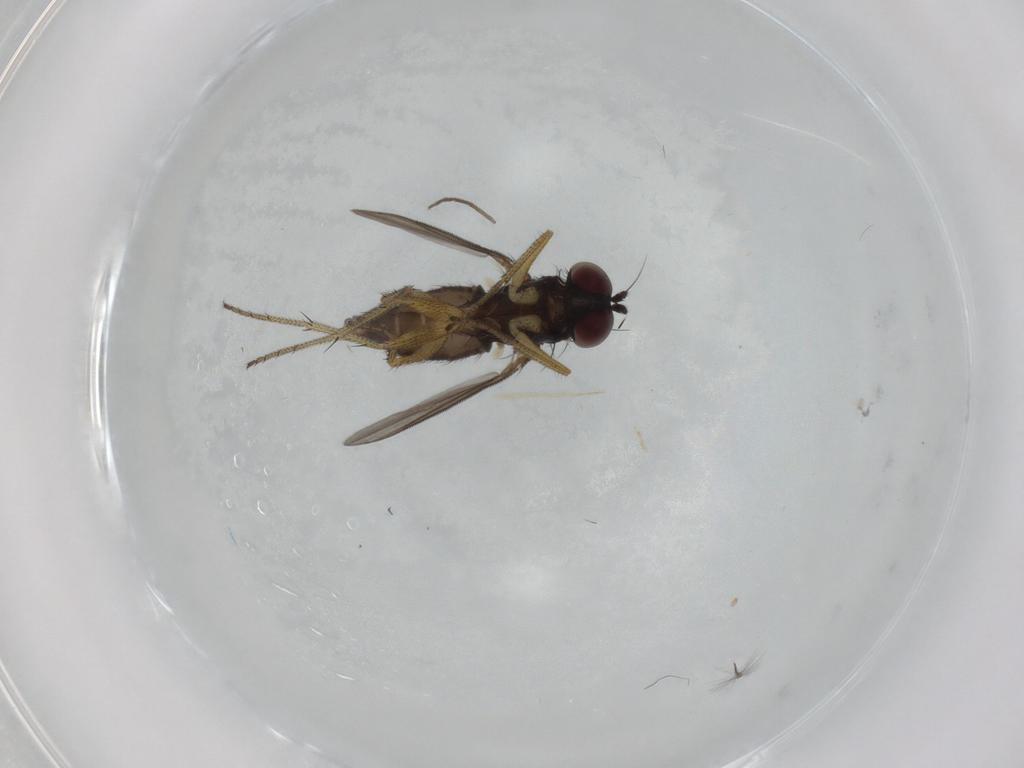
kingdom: Animalia
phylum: Arthropoda
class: Insecta
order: Diptera
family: Dolichopodidae
